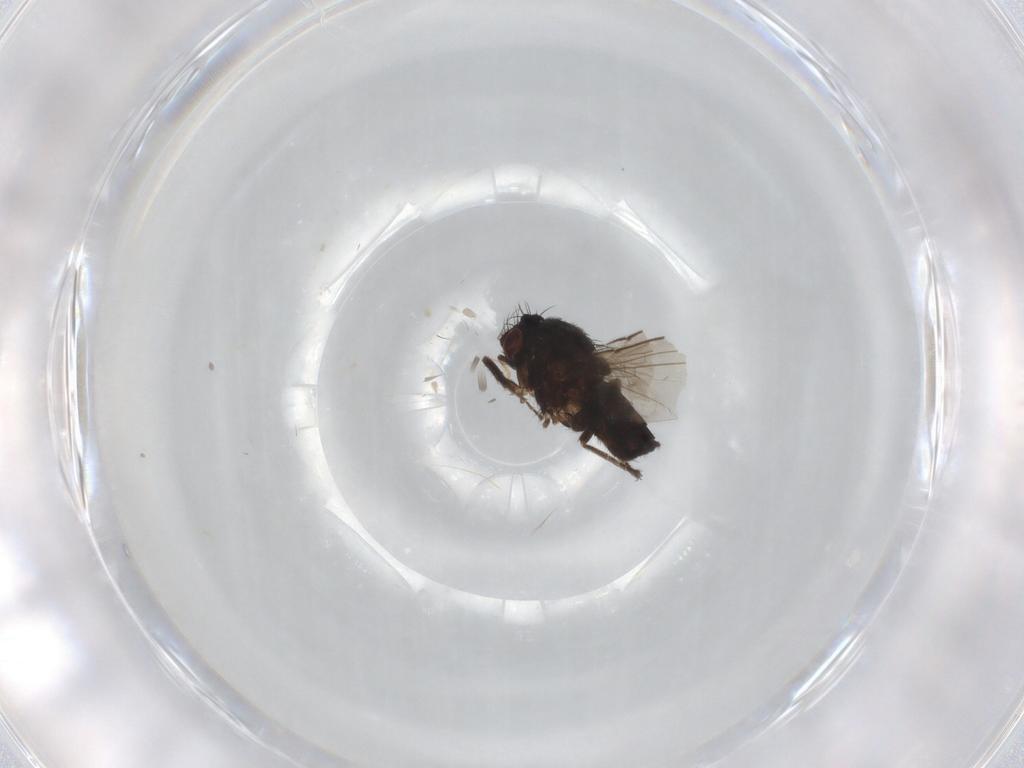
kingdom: Animalia
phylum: Arthropoda
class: Insecta
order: Diptera
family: Milichiidae
